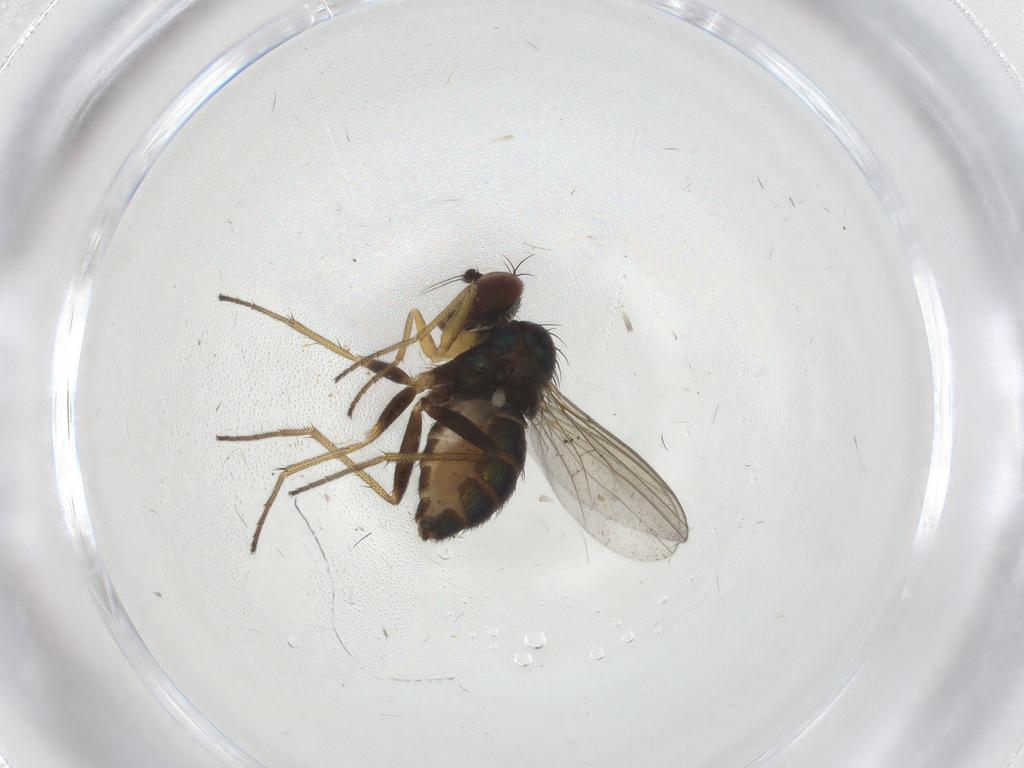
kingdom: Animalia
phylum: Arthropoda
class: Insecta
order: Diptera
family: Dolichopodidae
